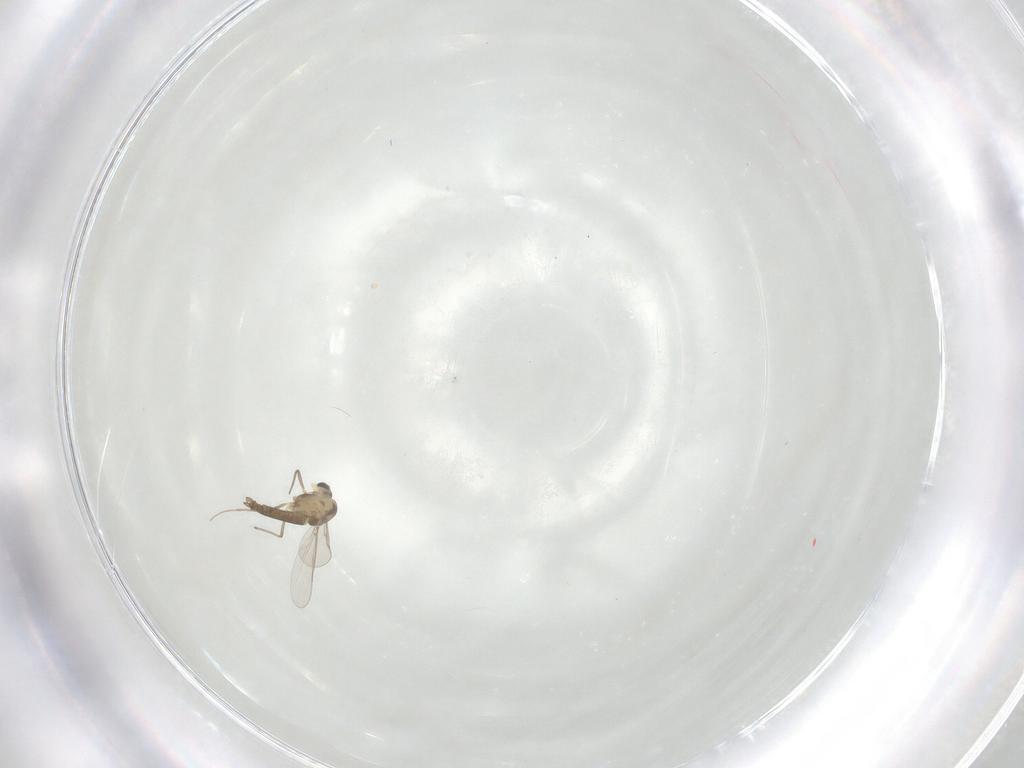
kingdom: Animalia
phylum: Arthropoda
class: Insecta
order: Diptera
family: Chironomidae
